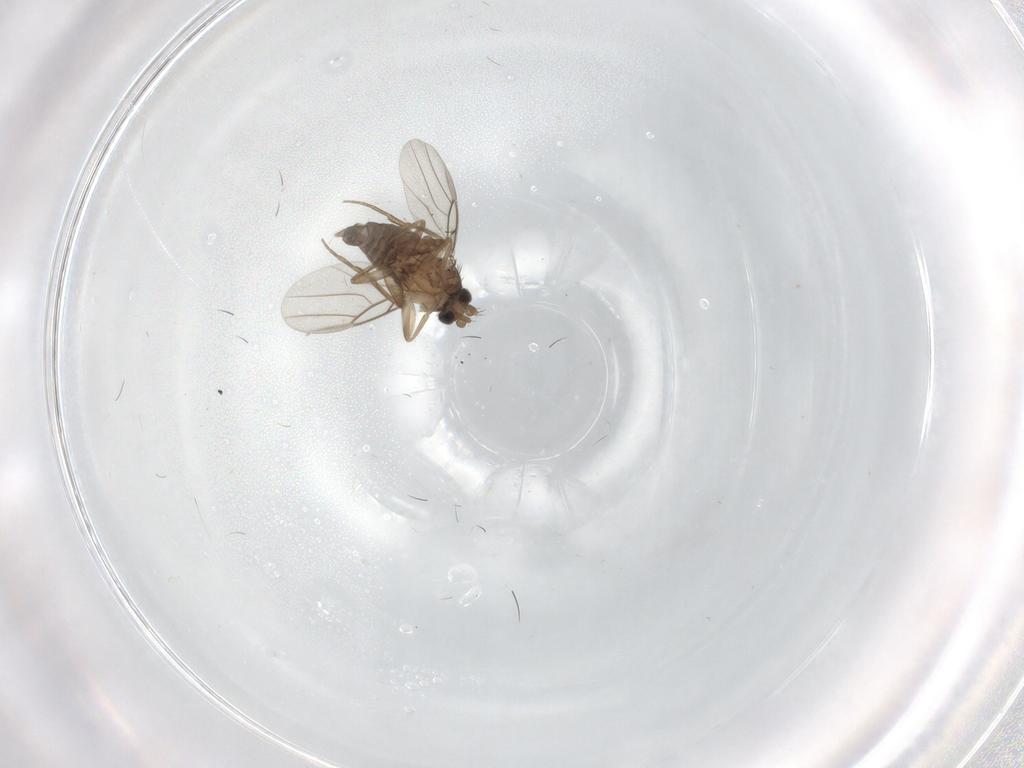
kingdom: Animalia
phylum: Arthropoda
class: Insecta
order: Diptera
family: Phoridae
